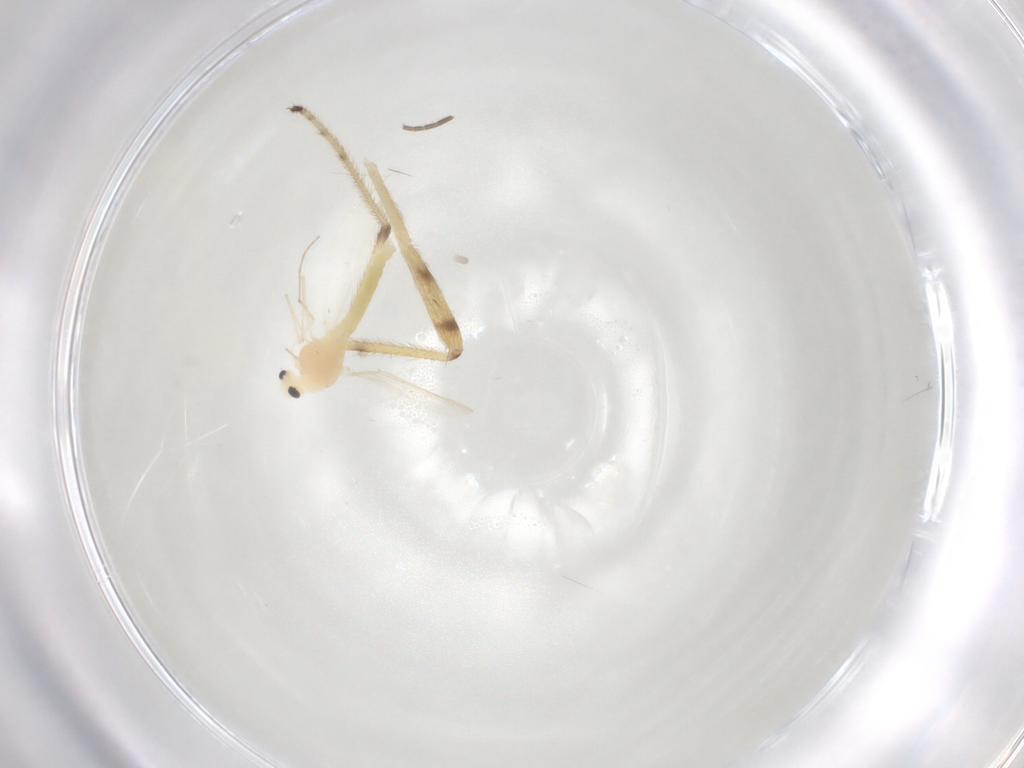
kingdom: Animalia
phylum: Arthropoda
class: Insecta
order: Diptera
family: Chironomidae
